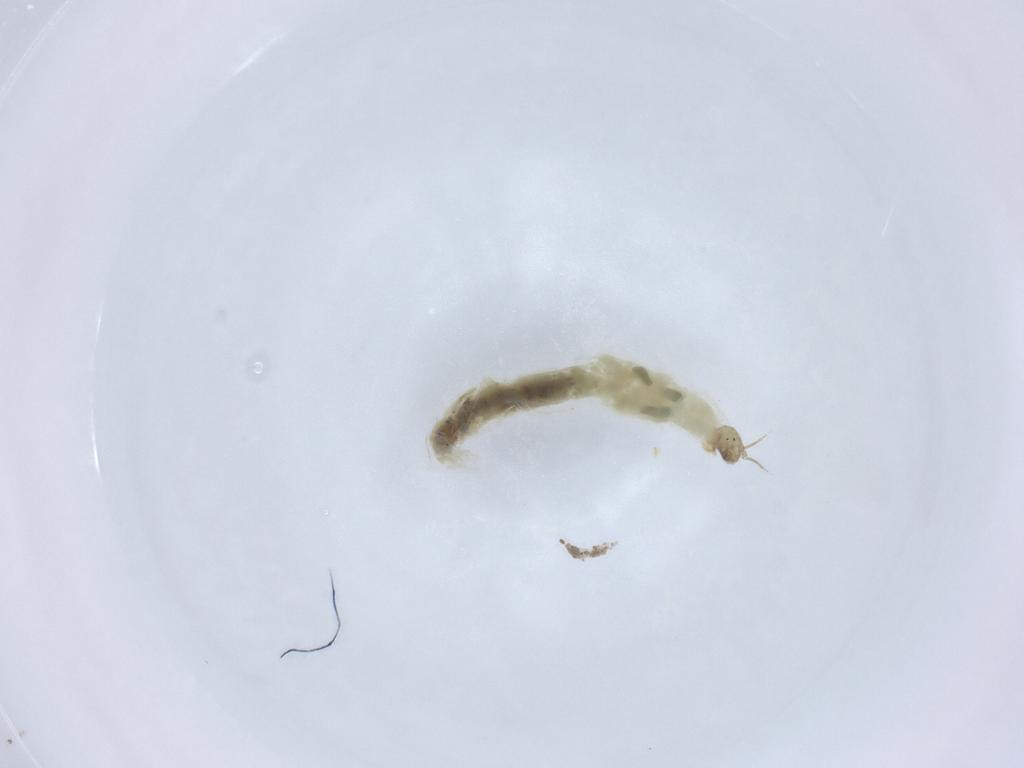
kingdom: Animalia
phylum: Arthropoda
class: Insecta
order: Diptera
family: Chironomidae
